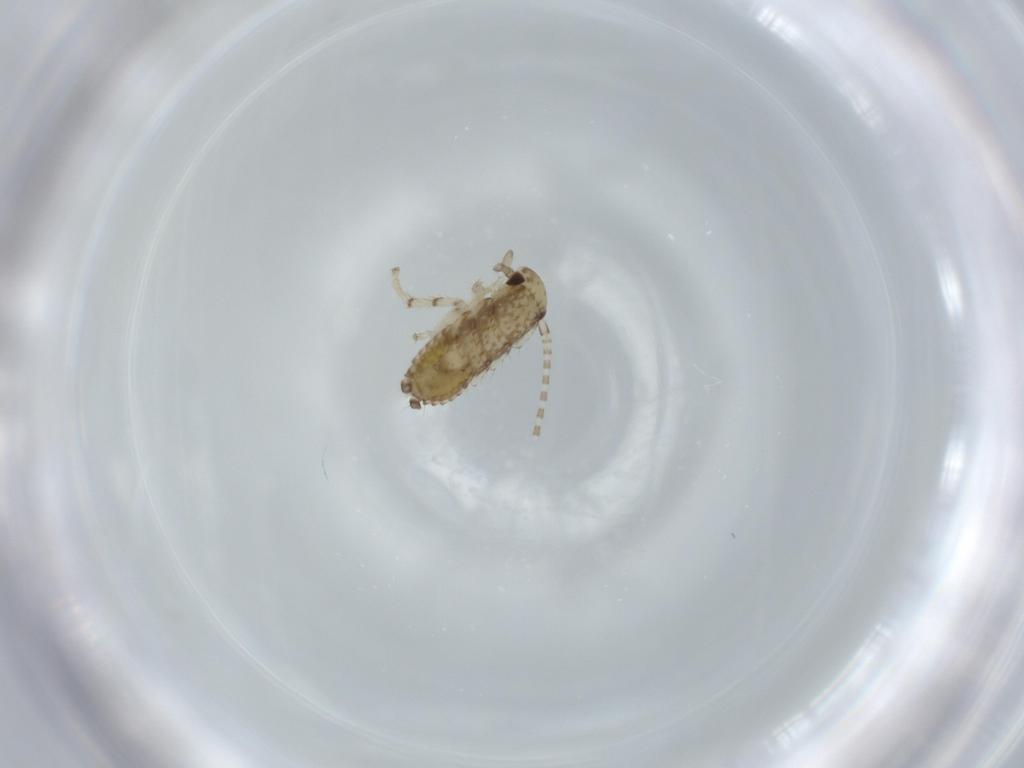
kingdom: Animalia
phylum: Arthropoda
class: Insecta
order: Blattodea
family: Ectobiidae
